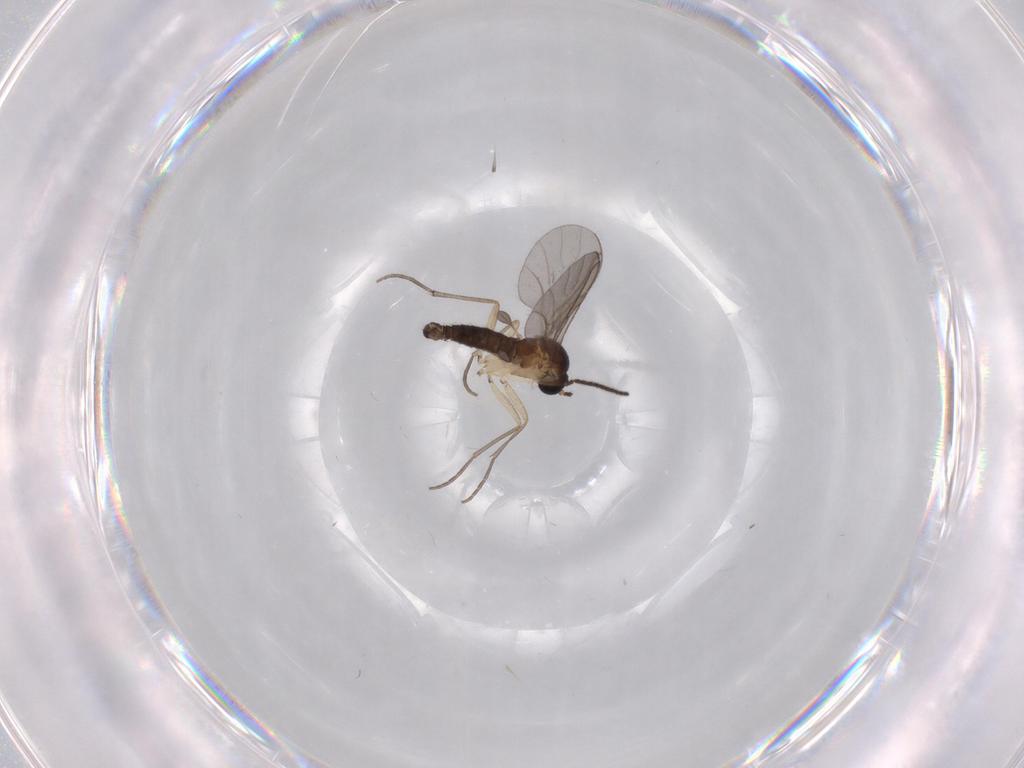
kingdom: Animalia
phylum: Arthropoda
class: Insecta
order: Diptera
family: Sciaridae
